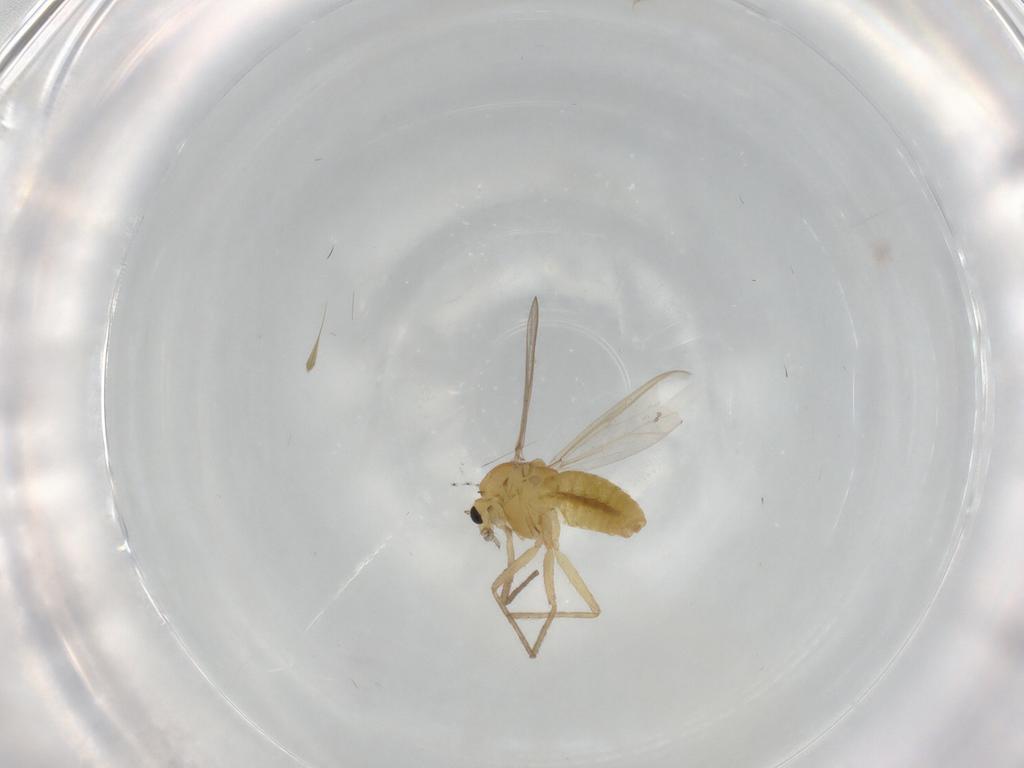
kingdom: Animalia
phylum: Arthropoda
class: Insecta
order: Diptera
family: Chironomidae
